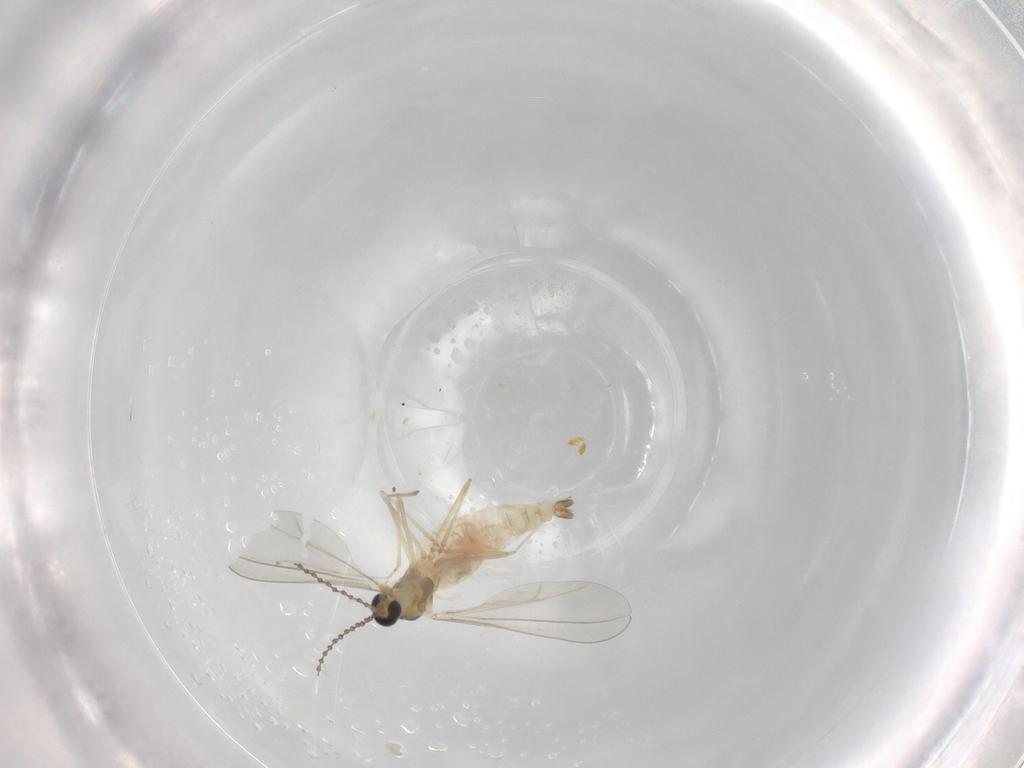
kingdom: Animalia
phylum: Arthropoda
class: Insecta
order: Diptera
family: Cecidomyiidae
